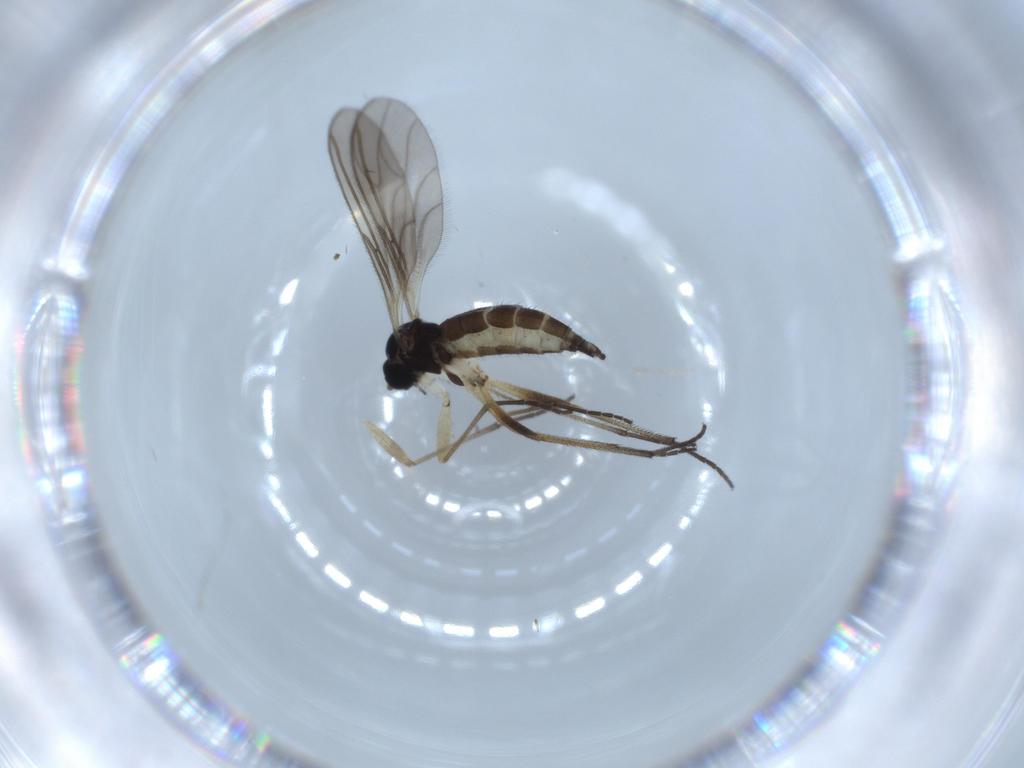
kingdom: Animalia
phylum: Arthropoda
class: Insecta
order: Diptera
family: Sciaridae
